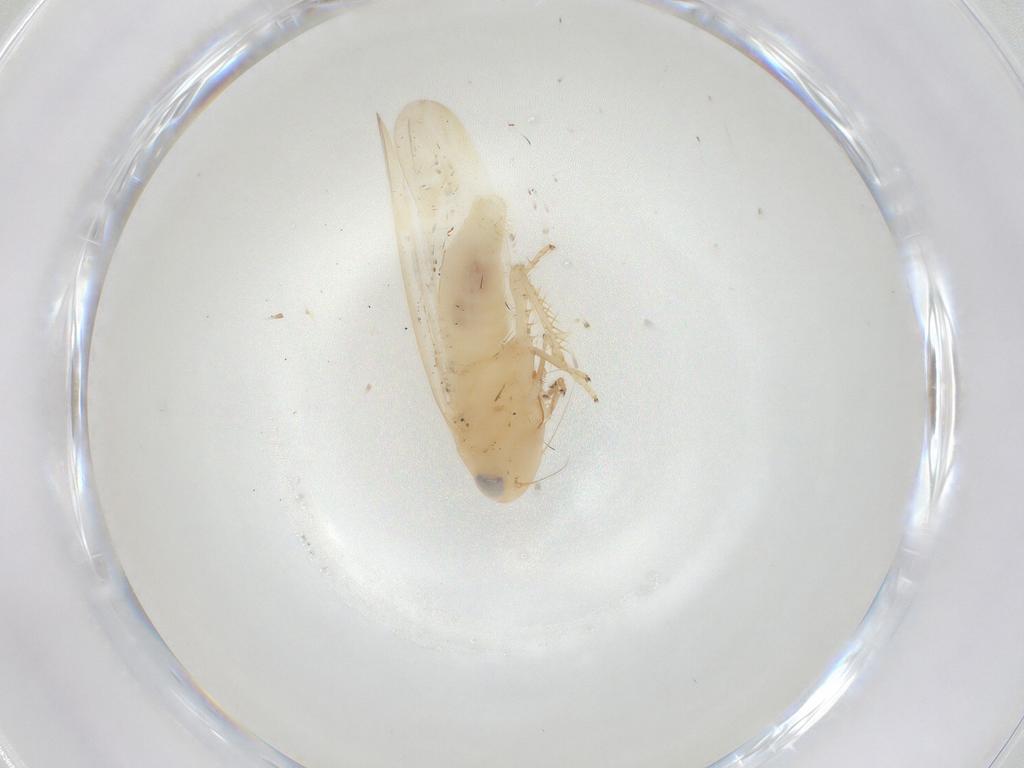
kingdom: Animalia
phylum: Arthropoda
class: Insecta
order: Hemiptera
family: Cicadellidae
